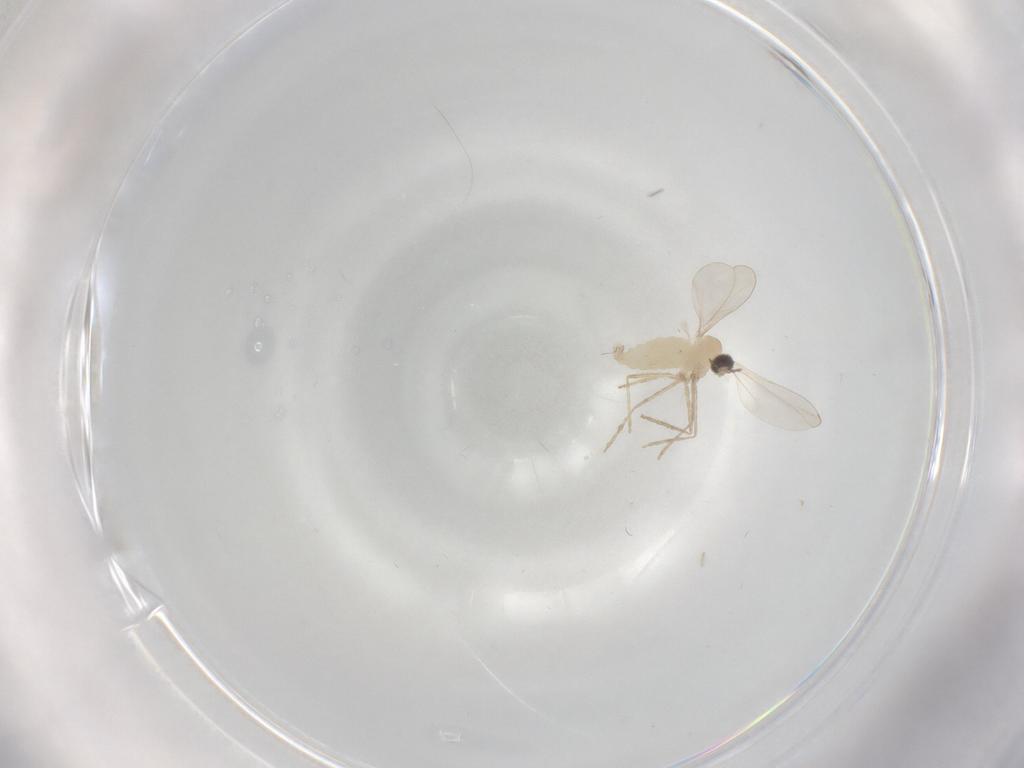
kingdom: Animalia
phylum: Arthropoda
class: Insecta
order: Diptera
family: Cecidomyiidae
